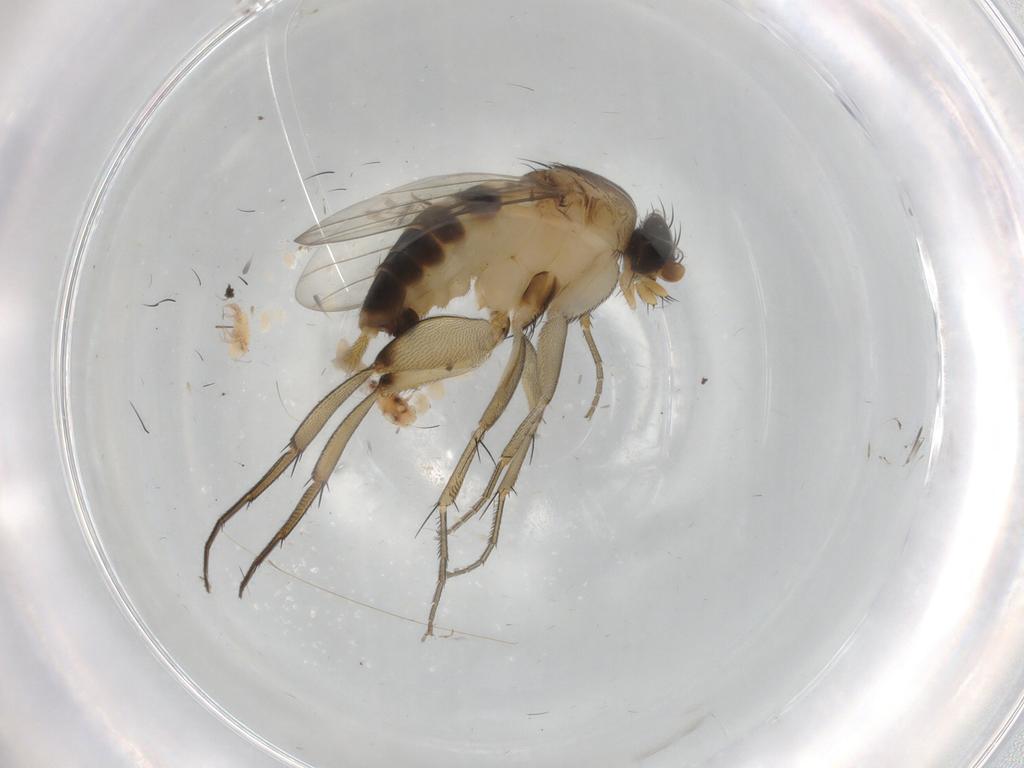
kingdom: Animalia
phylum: Arthropoda
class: Insecta
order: Diptera
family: Phoridae
